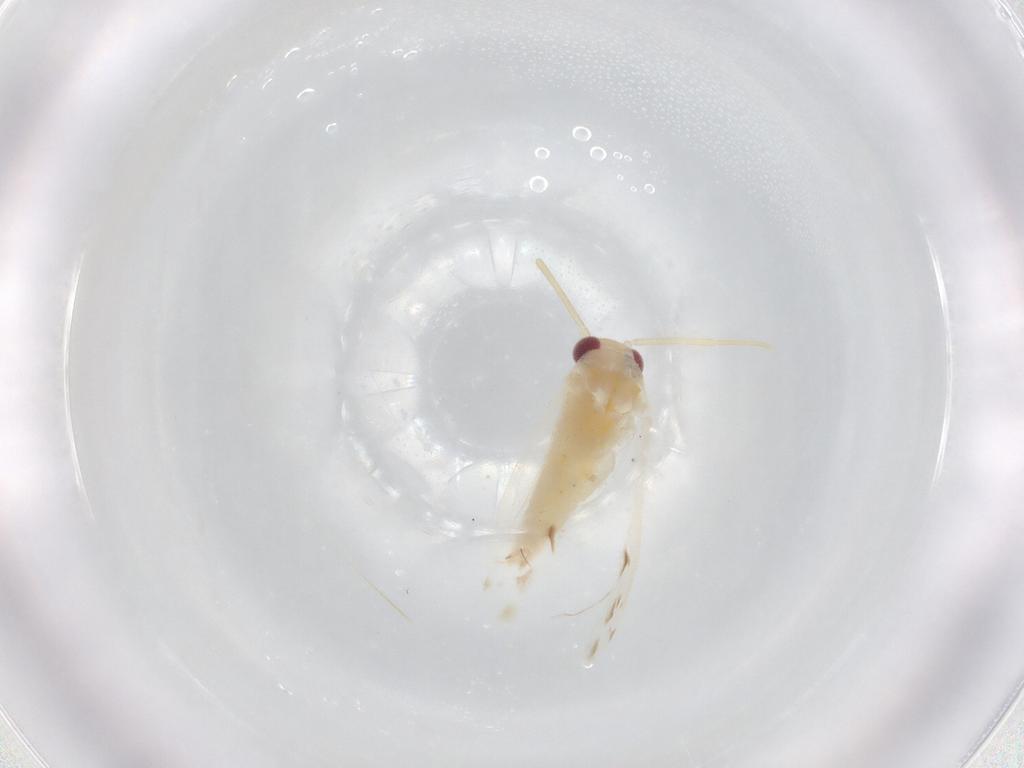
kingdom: Animalia
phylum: Arthropoda
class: Insecta
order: Hemiptera
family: Miridae
